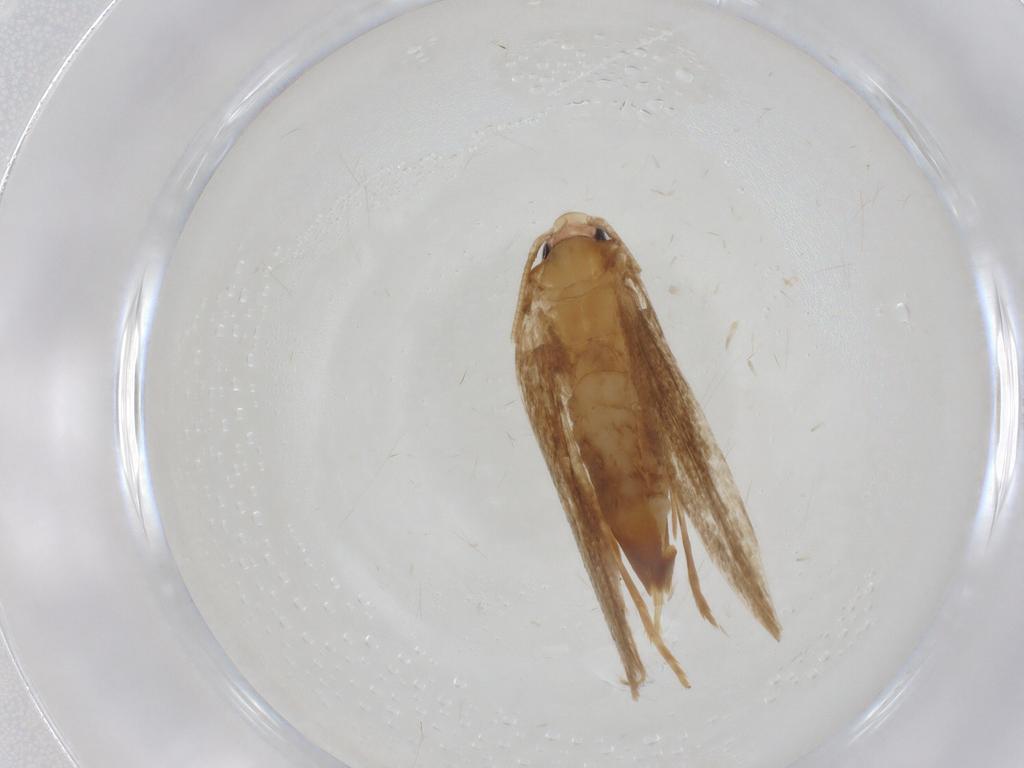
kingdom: Animalia
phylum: Arthropoda
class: Insecta
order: Lepidoptera
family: Tineidae
